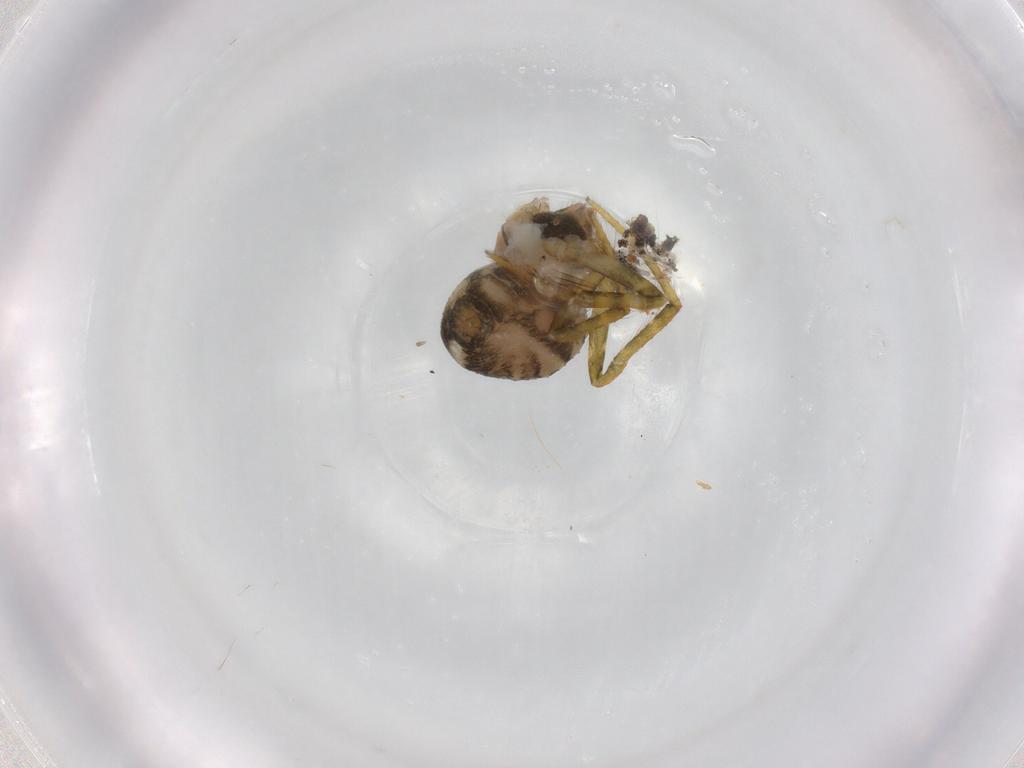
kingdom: Animalia
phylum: Arthropoda
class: Arachnida
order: Araneae
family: Theridiidae
